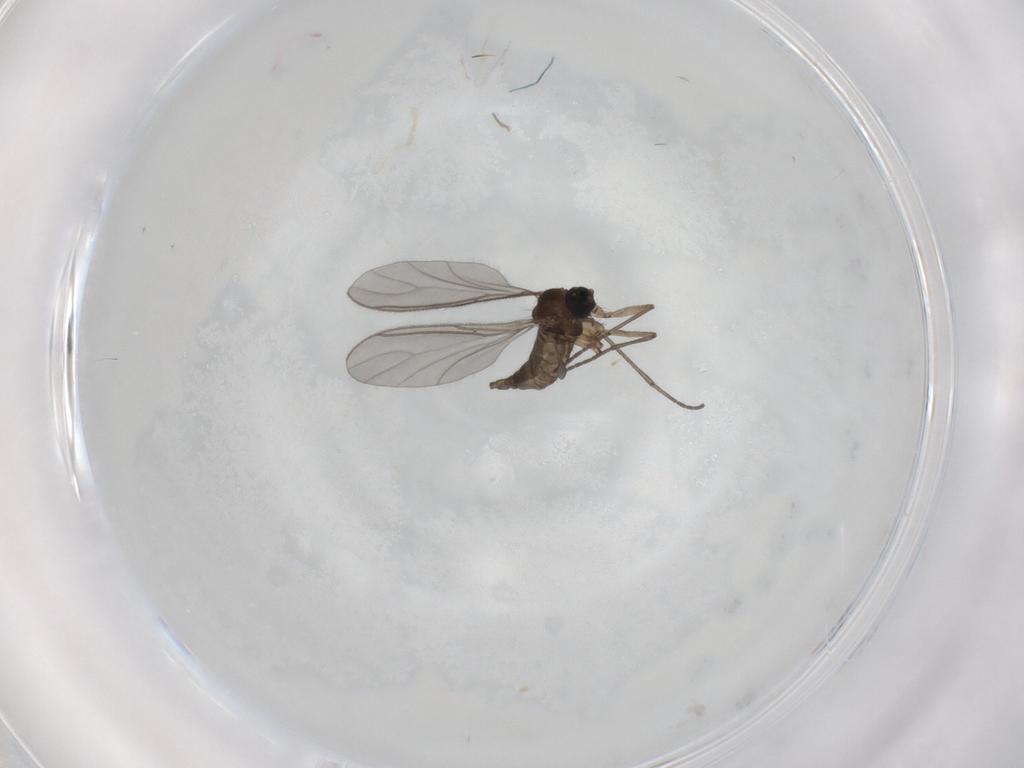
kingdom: Animalia
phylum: Arthropoda
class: Insecta
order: Diptera
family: Sciaridae
